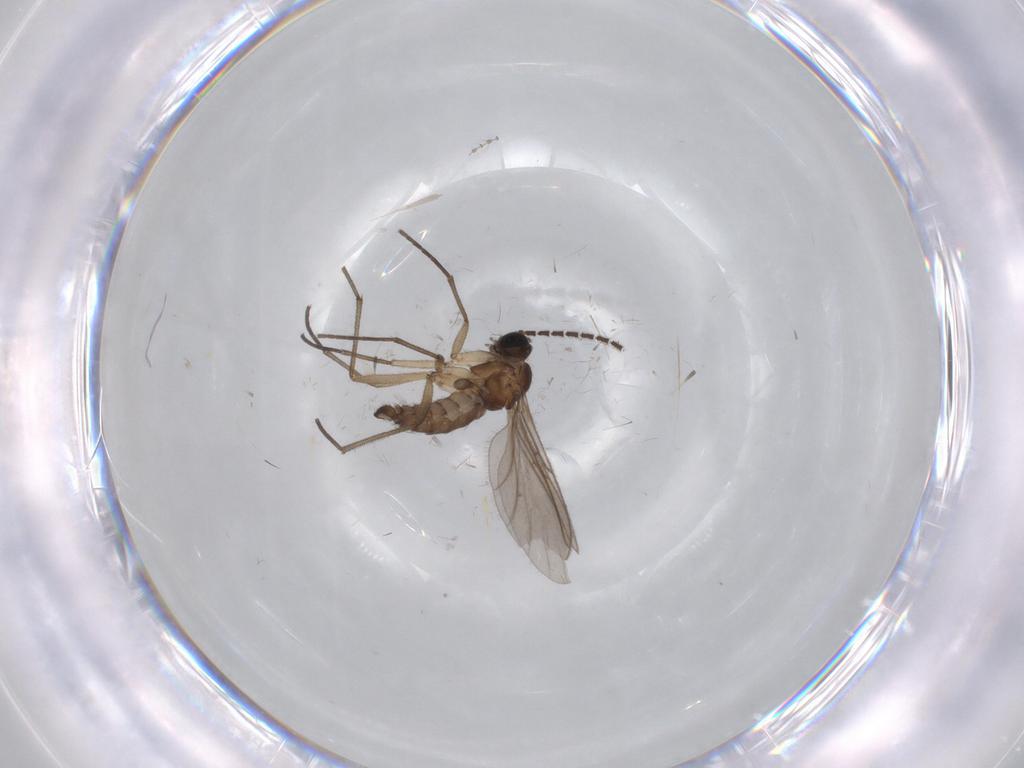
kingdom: Animalia
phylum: Arthropoda
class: Insecta
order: Diptera
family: Sciaridae
